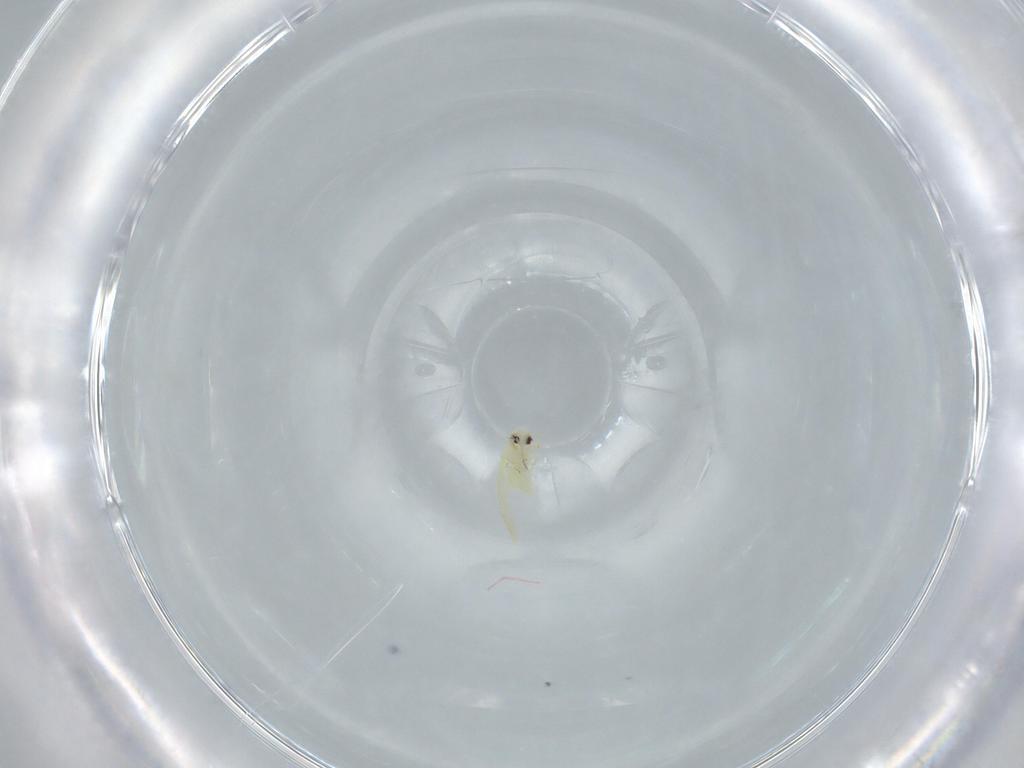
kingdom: Animalia
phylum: Arthropoda
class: Insecta
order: Hemiptera
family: Aleyrodidae
